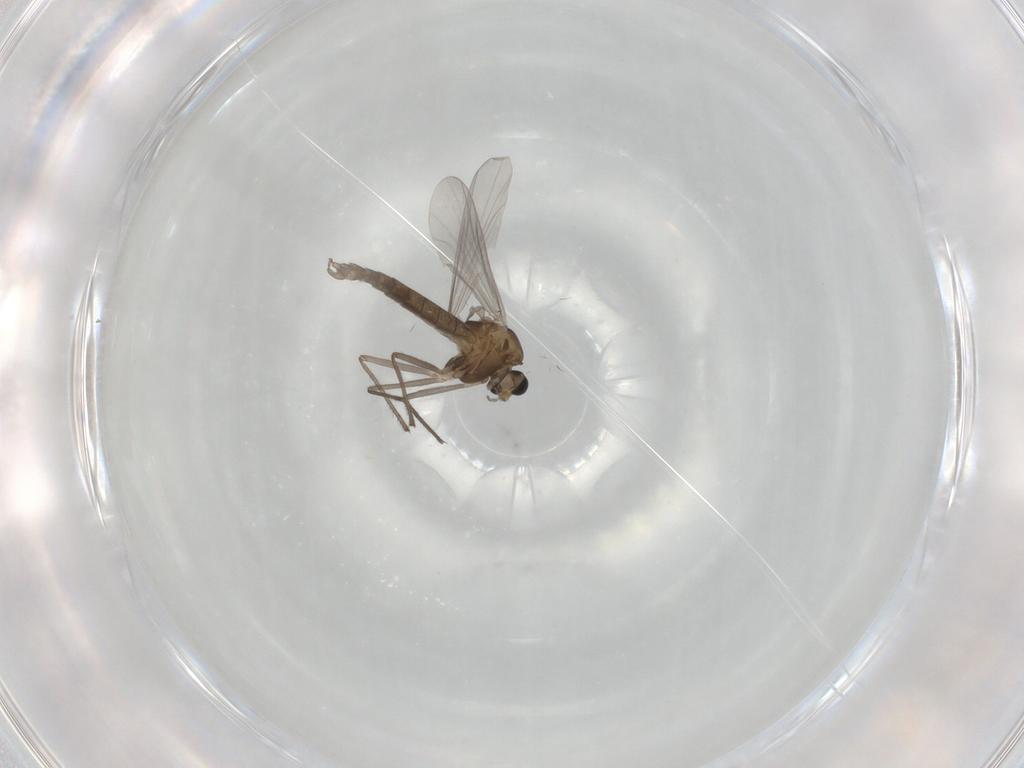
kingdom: Animalia
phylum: Arthropoda
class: Insecta
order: Diptera
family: Chironomidae
